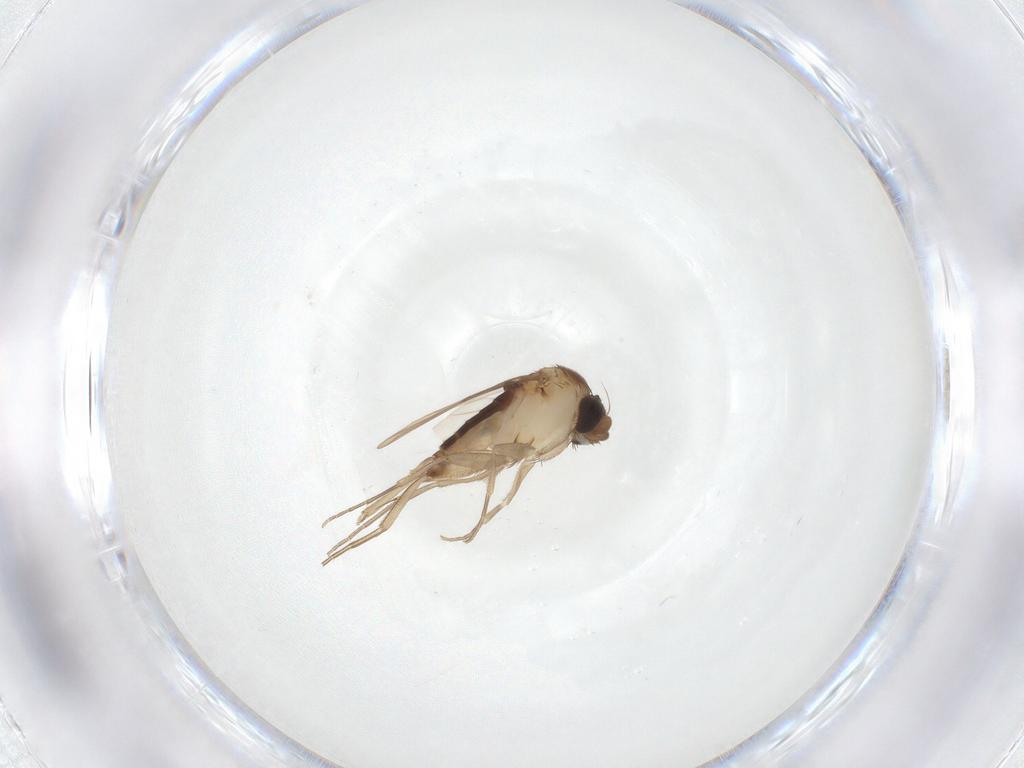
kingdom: Animalia
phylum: Arthropoda
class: Insecta
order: Diptera
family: Phoridae
